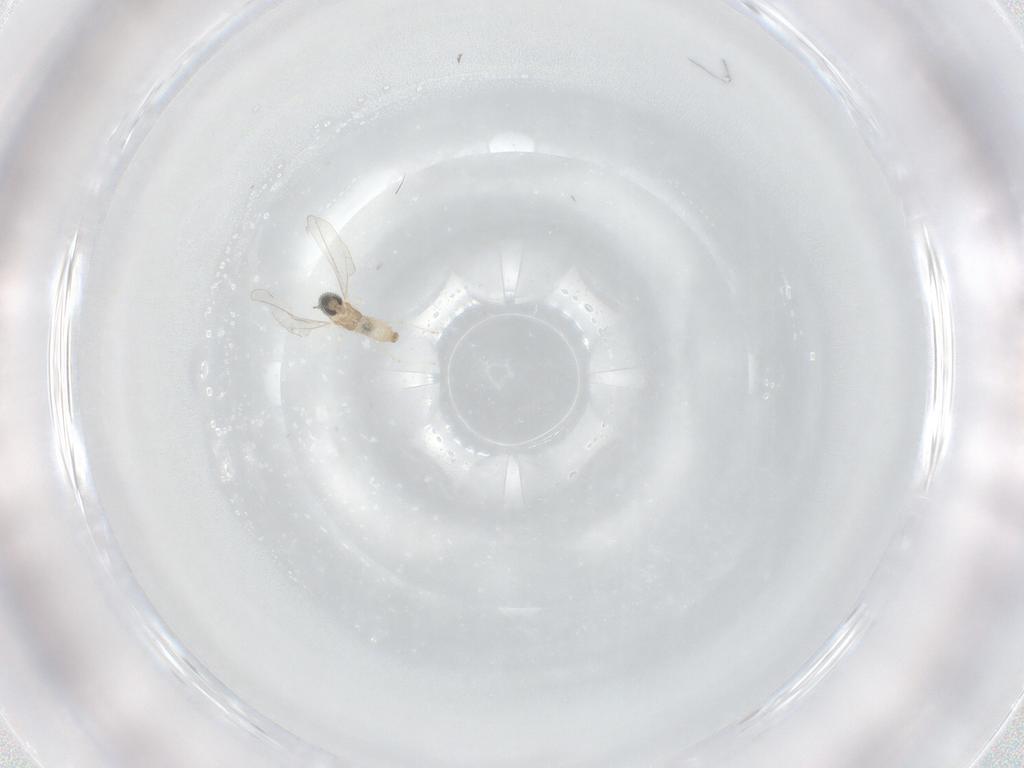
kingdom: Animalia
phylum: Arthropoda
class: Insecta
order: Diptera
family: Cecidomyiidae
